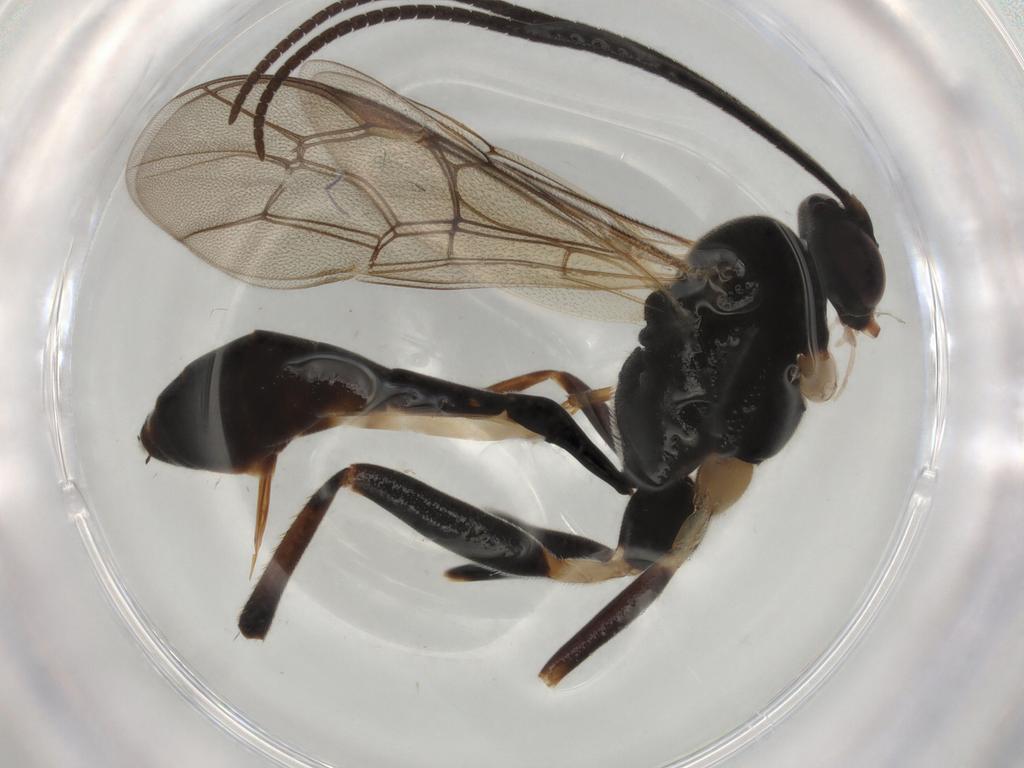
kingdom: Animalia
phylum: Arthropoda
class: Insecta
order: Hymenoptera
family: Ichneumonidae
